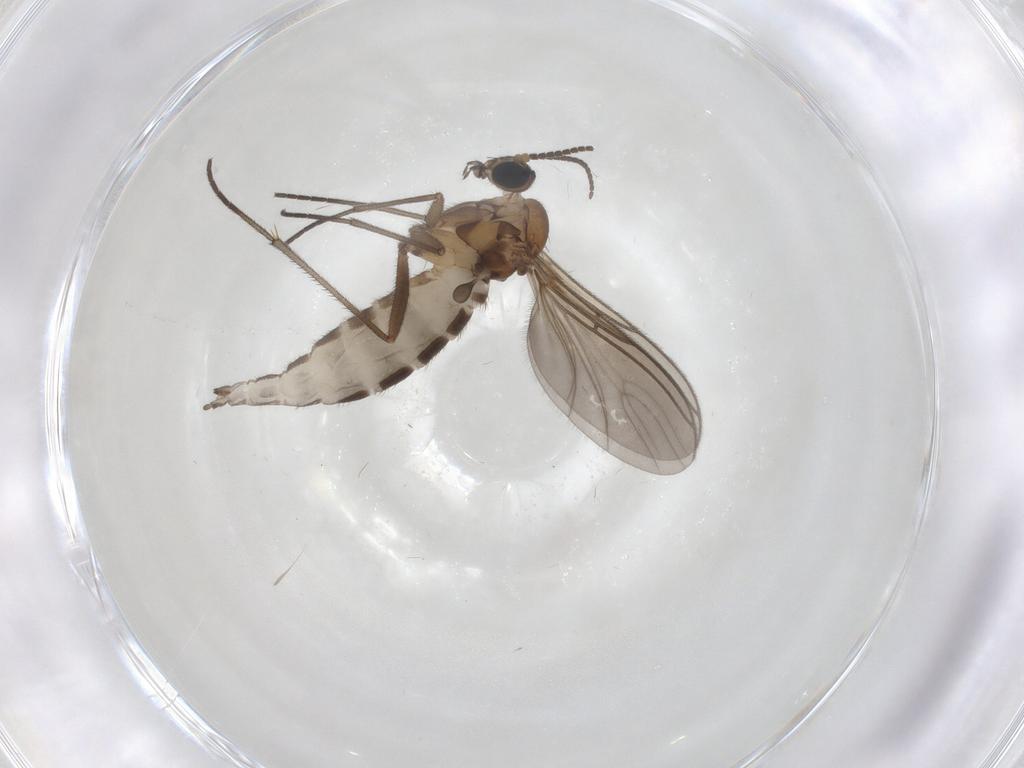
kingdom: Animalia
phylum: Arthropoda
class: Insecta
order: Diptera
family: Sciaridae
